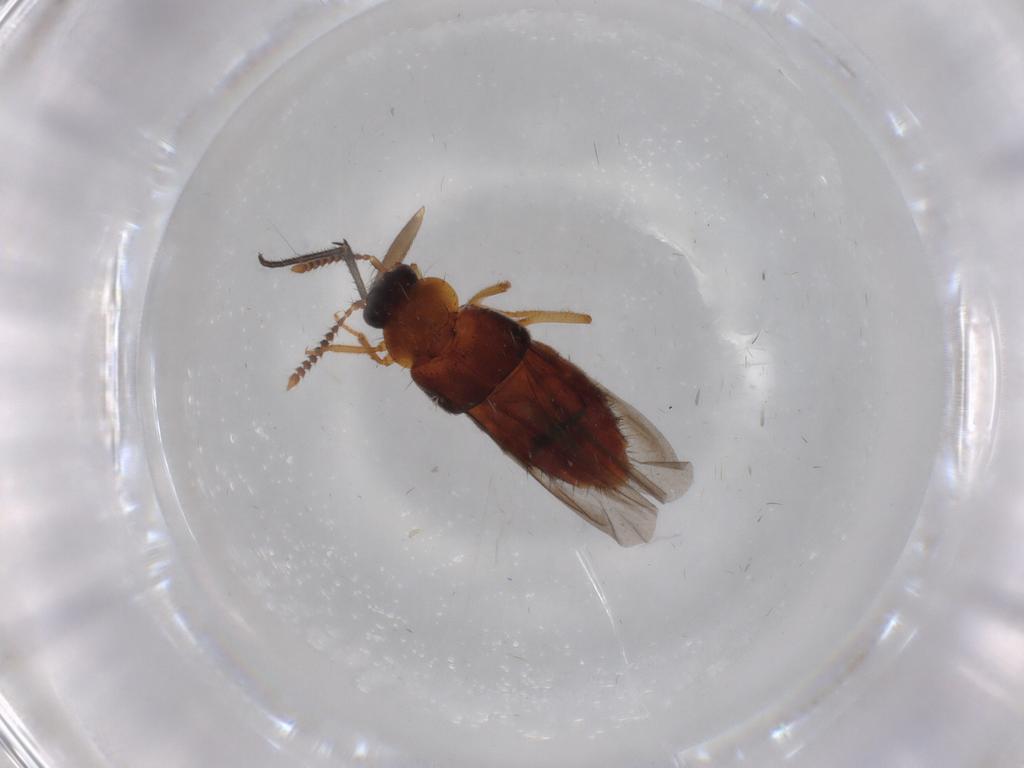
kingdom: Animalia
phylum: Arthropoda
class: Insecta
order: Coleoptera
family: Staphylinidae
